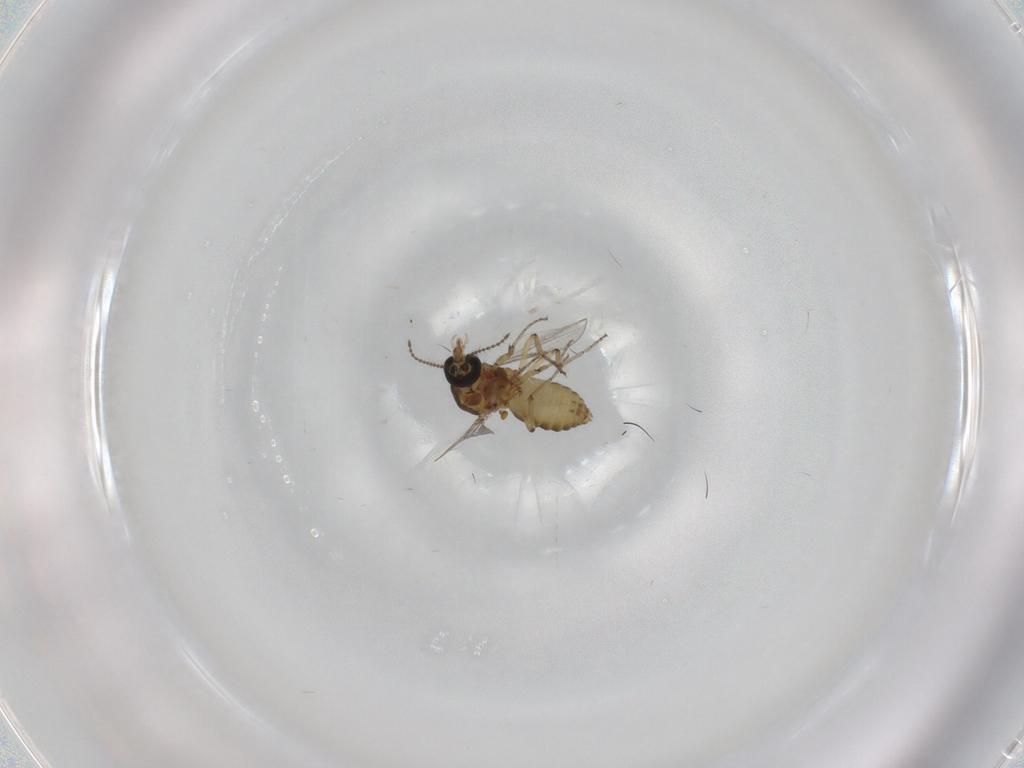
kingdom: Animalia
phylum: Arthropoda
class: Insecta
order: Diptera
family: Ceratopogonidae
